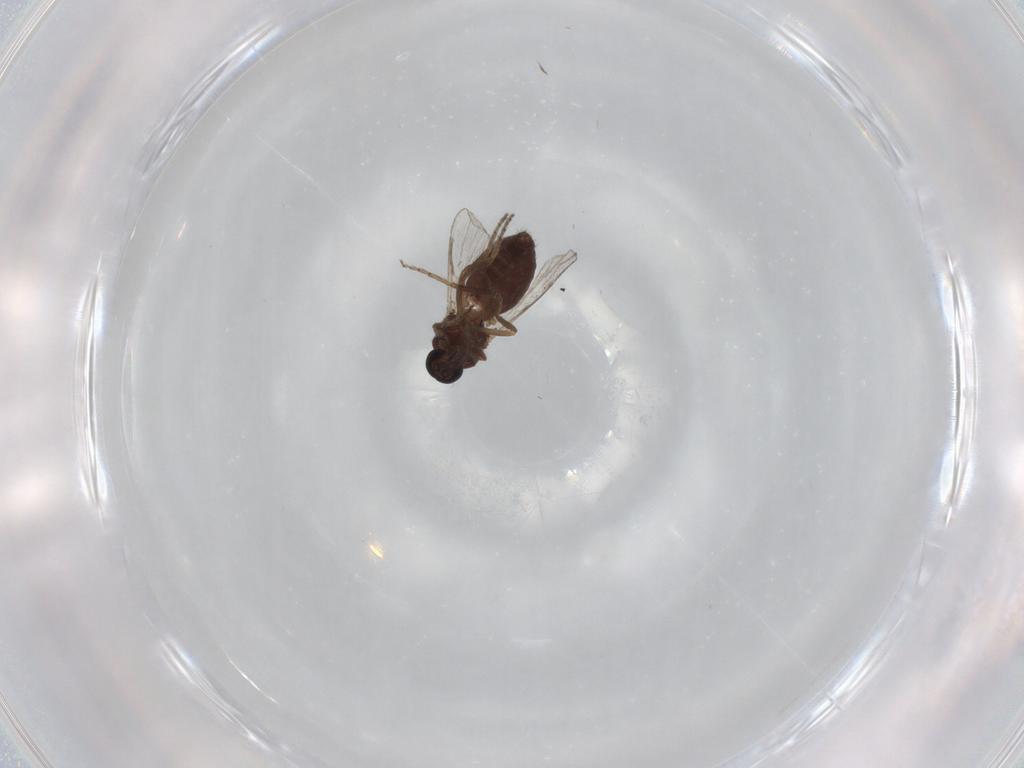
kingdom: Animalia
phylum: Arthropoda
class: Insecta
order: Diptera
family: Ceratopogonidae
